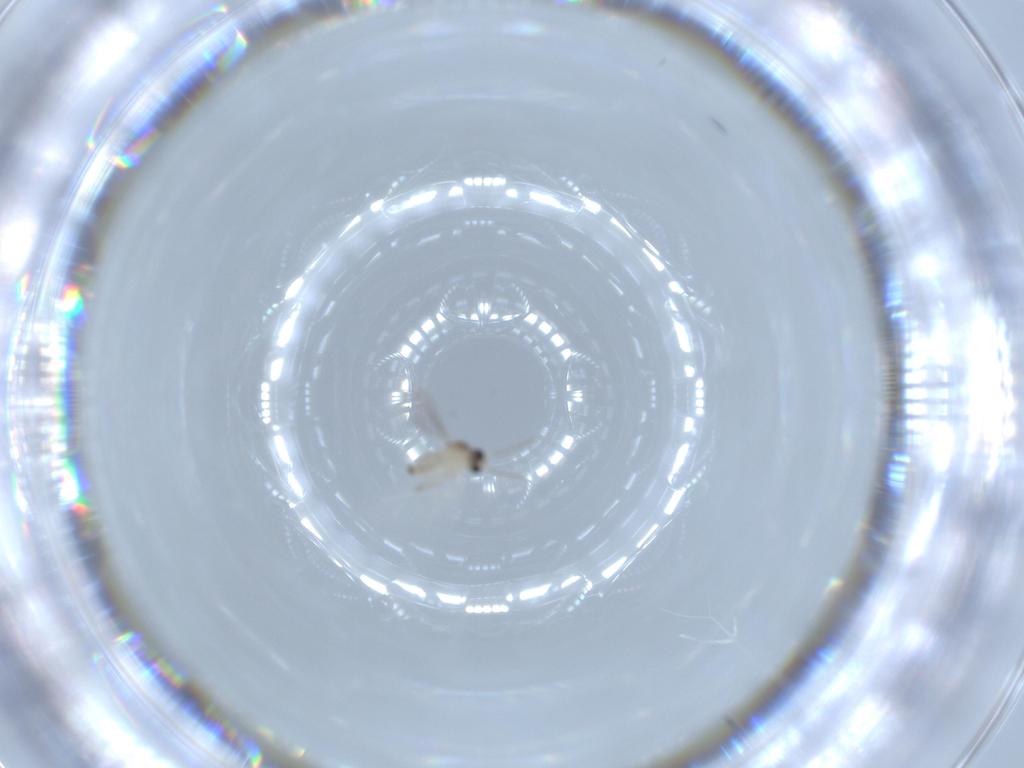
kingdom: Animalia
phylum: Arthropoda
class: Insecta
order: Diptera
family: Cecidomyiidae
